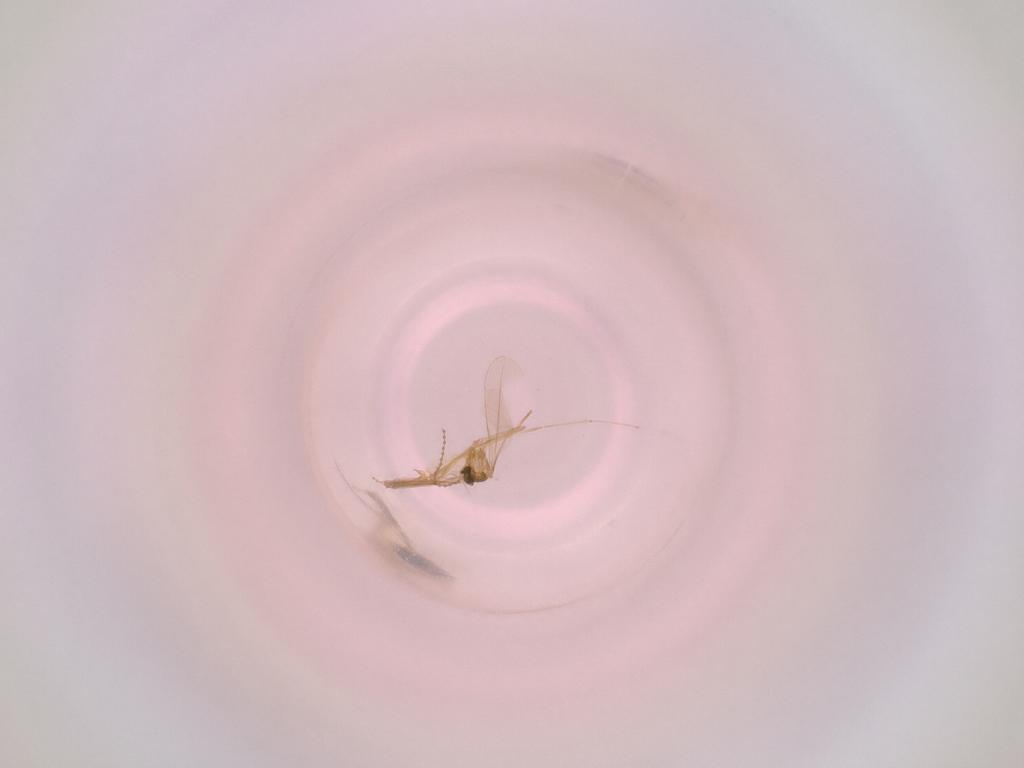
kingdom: Animalia
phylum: Arthropoda
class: Insecta
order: Diptera
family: Cecidomyiidae
